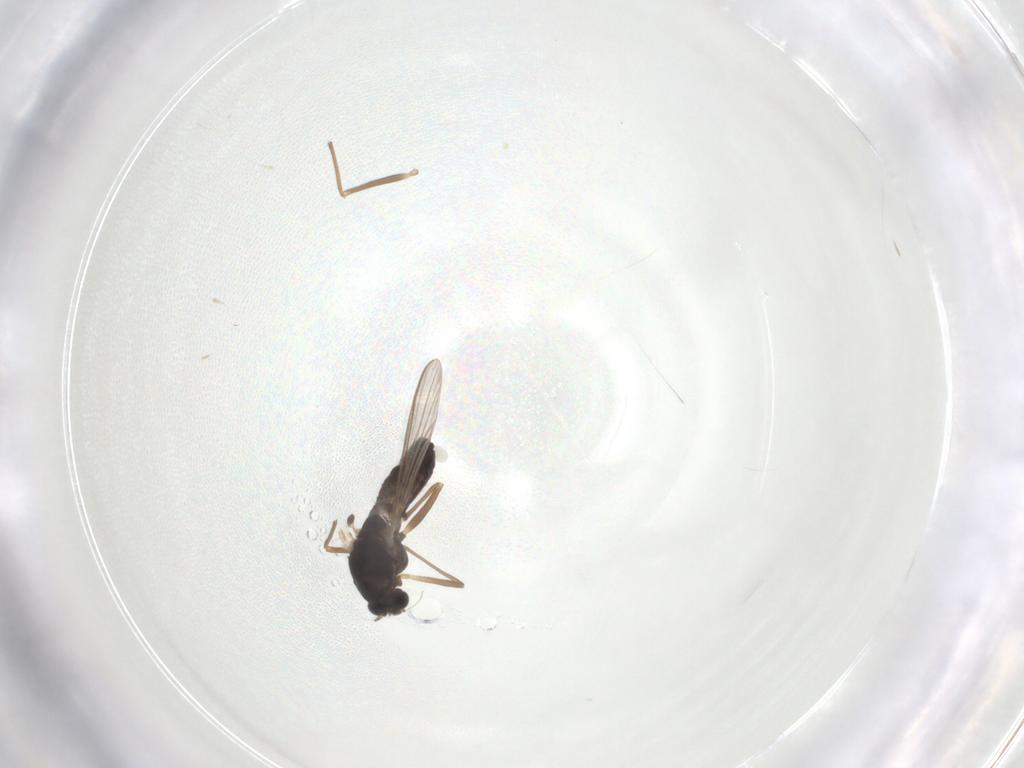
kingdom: Animalia
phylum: Arthropoda
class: Insecta
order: Diptera
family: Chironomidae
